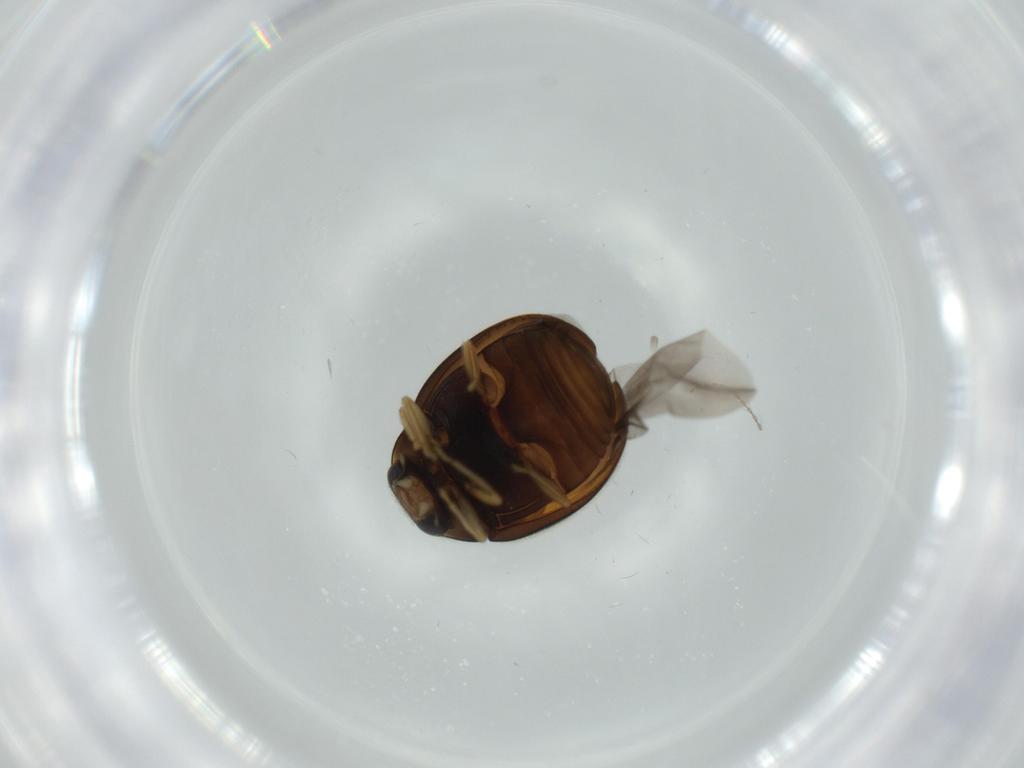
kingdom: Animalia
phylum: Arthropoda
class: Insecta
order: Coleoptera
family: Coccinellidae
